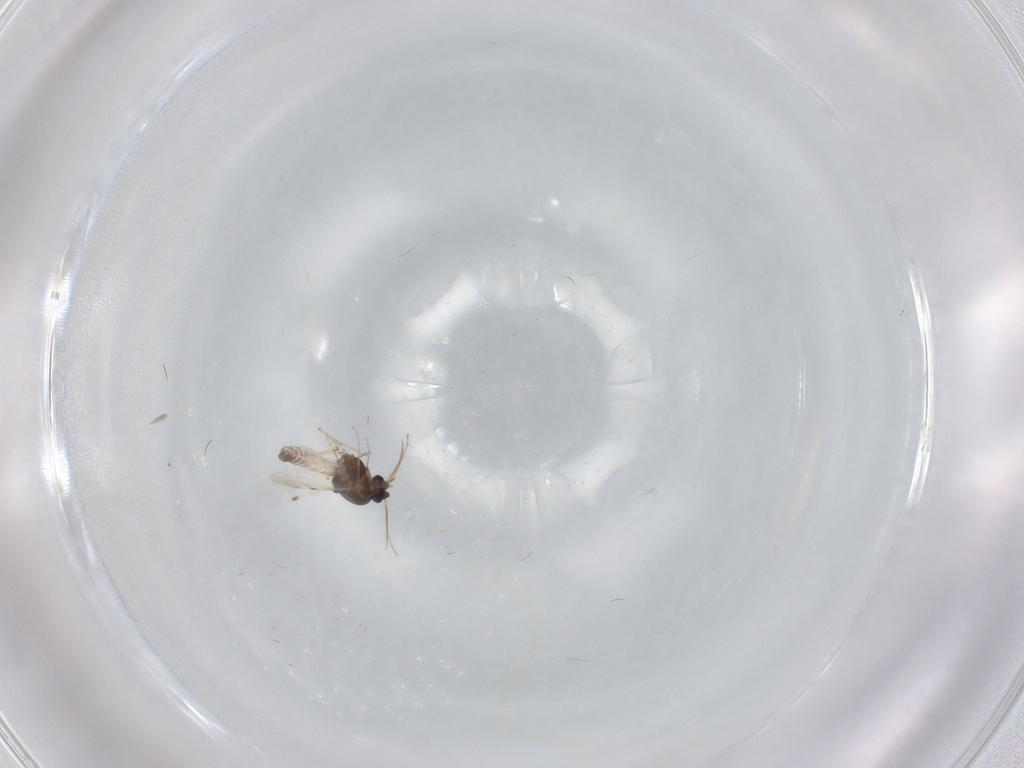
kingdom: Animalia
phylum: Arthropoda
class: Insecta
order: Diptera
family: Limoniidae
